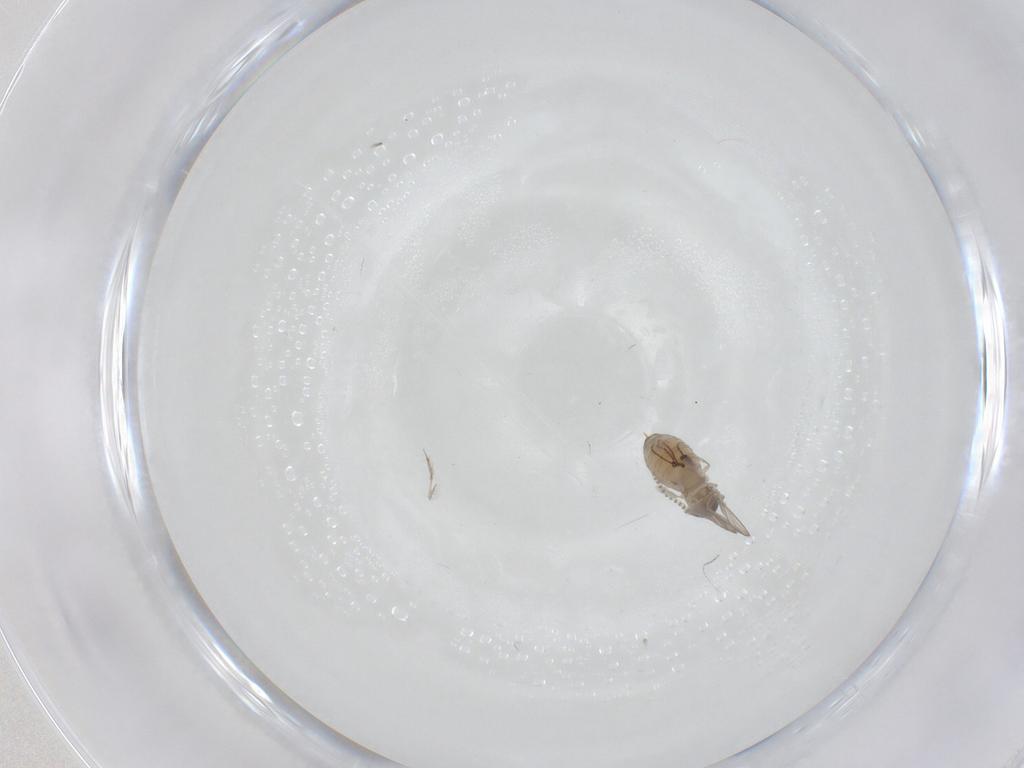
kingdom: Animalia
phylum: Arthropoda
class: Insecta
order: Diptera
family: Psychodidae
